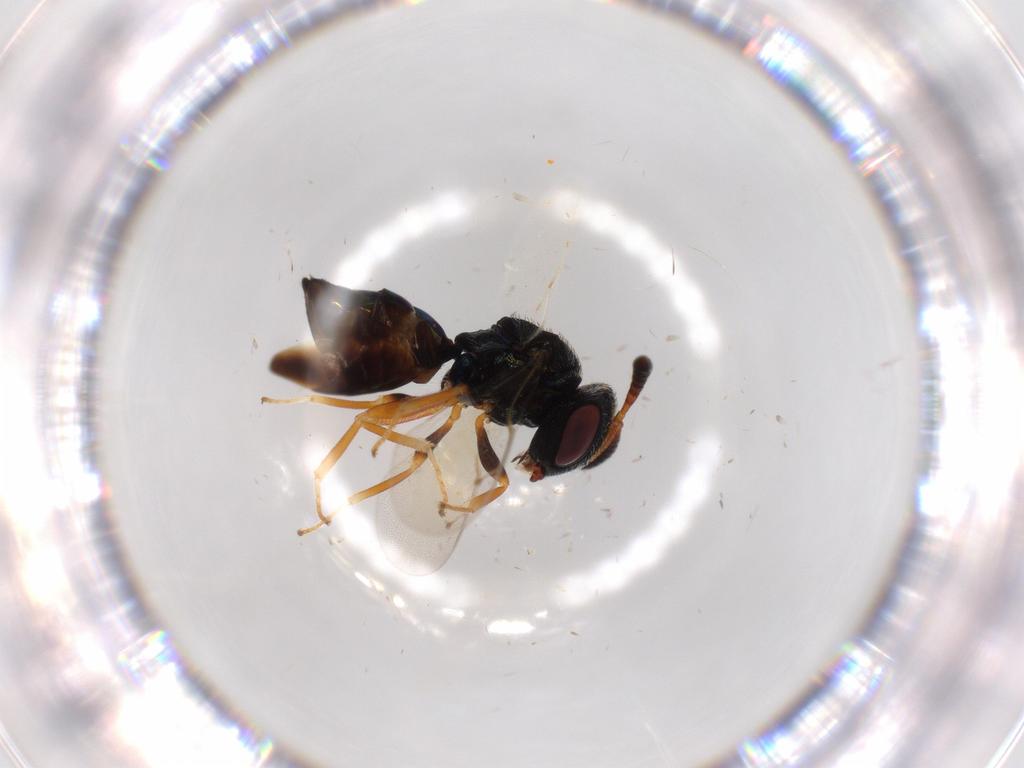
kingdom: Animalia
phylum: Arthropoda
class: Insecta
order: Hymenoptera
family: Agaonidae
